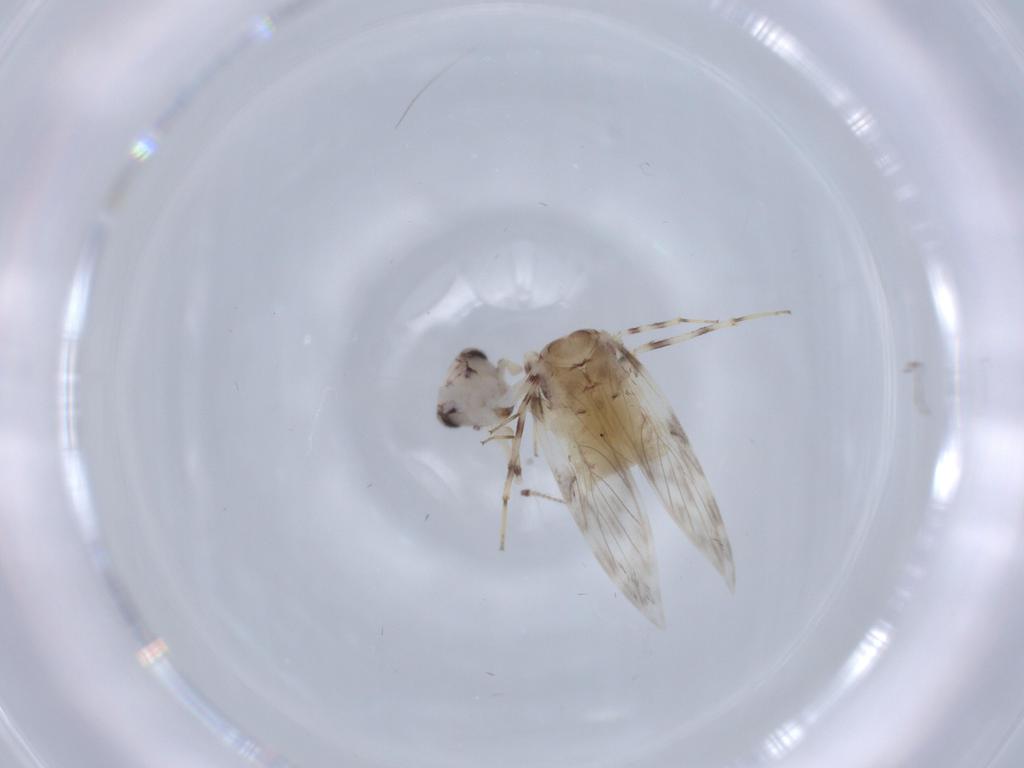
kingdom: Animalia
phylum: Arthropoda
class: Insecta
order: Psocodea
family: Lepidopsocidae
